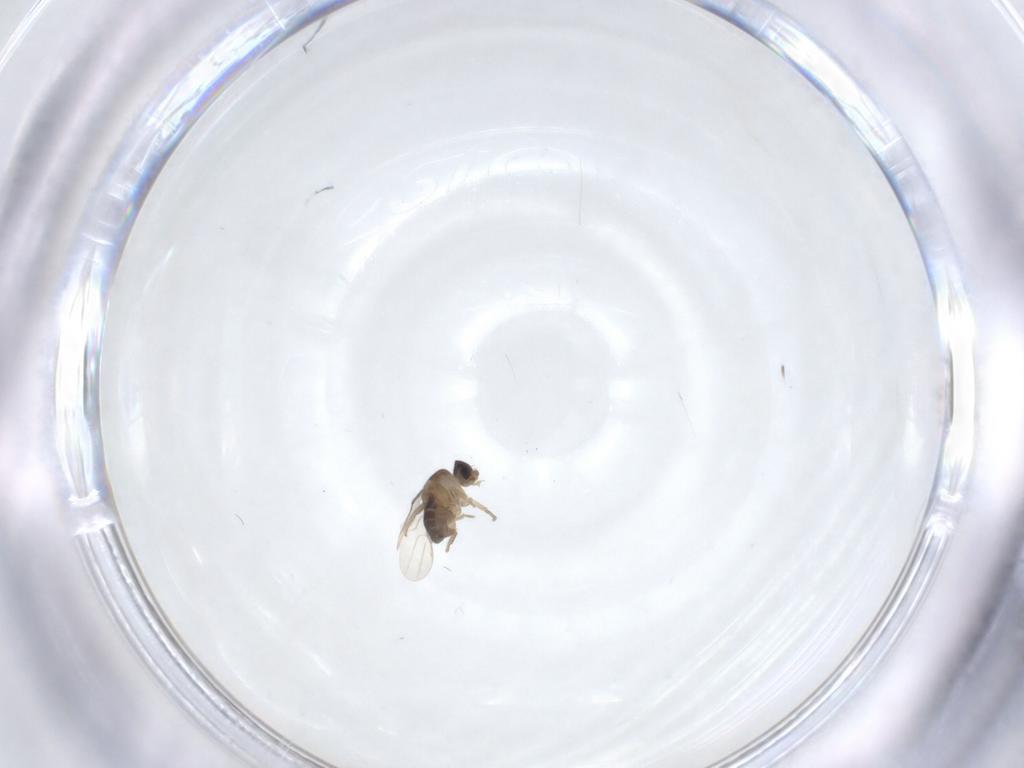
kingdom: Animalia
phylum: Arthropoda
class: Insecta
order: Diptera
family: Phoridae
